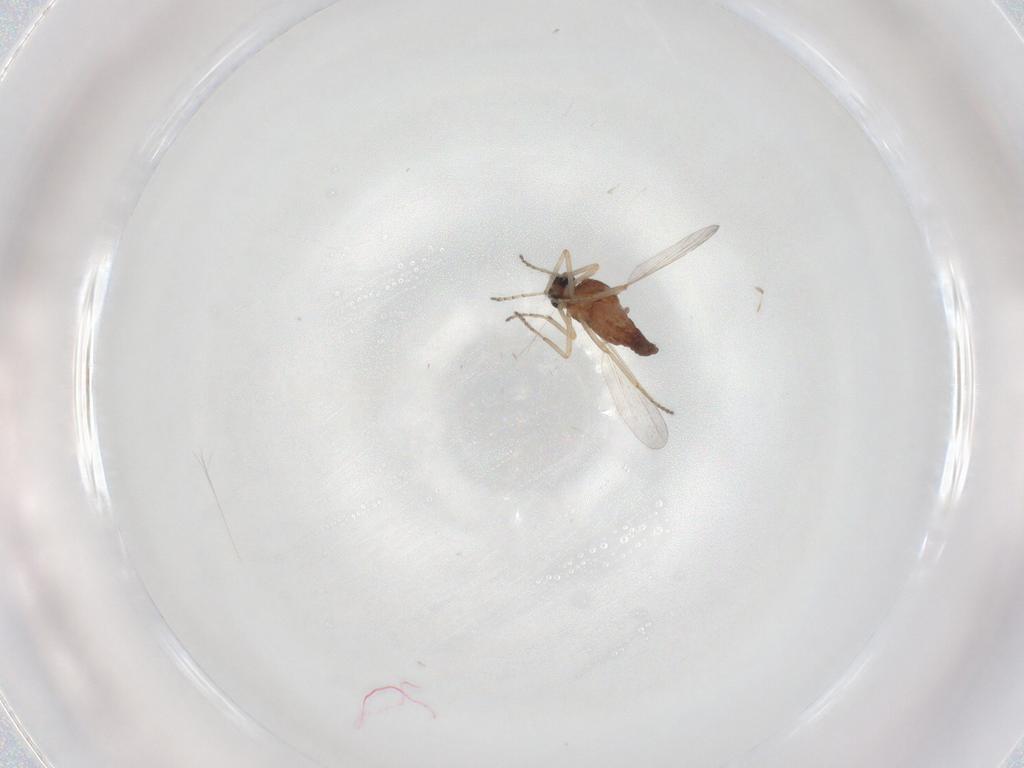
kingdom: Animalia
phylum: Arthropoda
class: Insecta
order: Diptera
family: Ceratopogonidae
